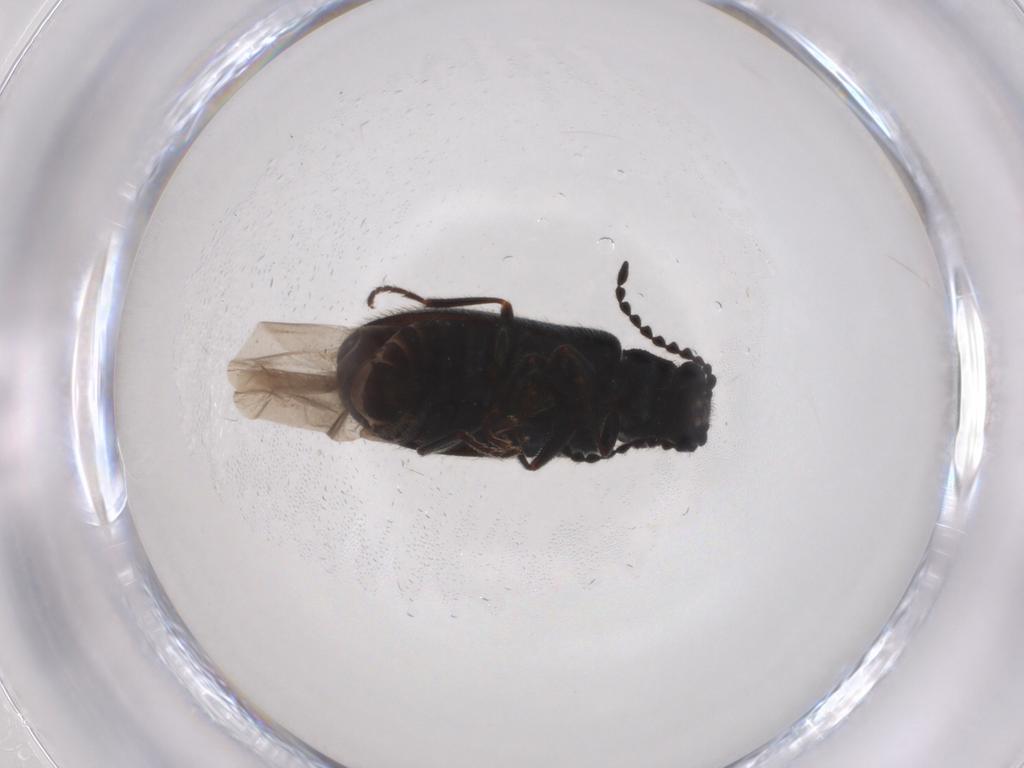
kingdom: Animalia
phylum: Arthropoda
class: Insecta
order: Coleoptera
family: Melyridae
